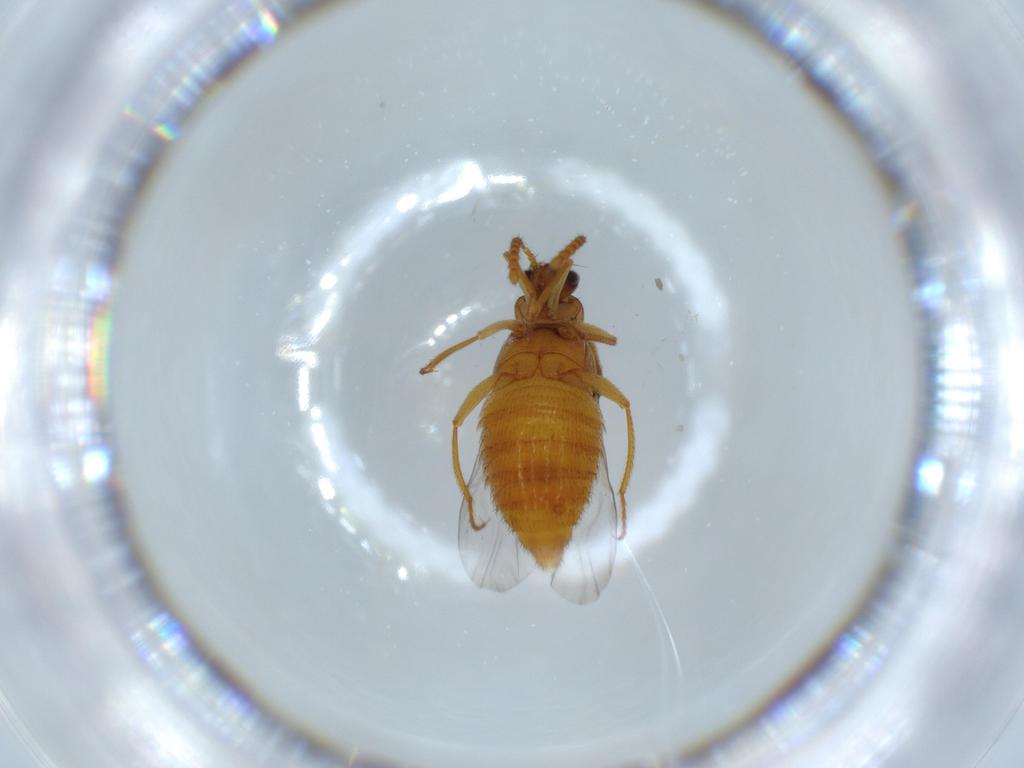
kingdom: Animalia
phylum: Arthropoda
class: Insecta
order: Coleoptera
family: Staphylinidae
